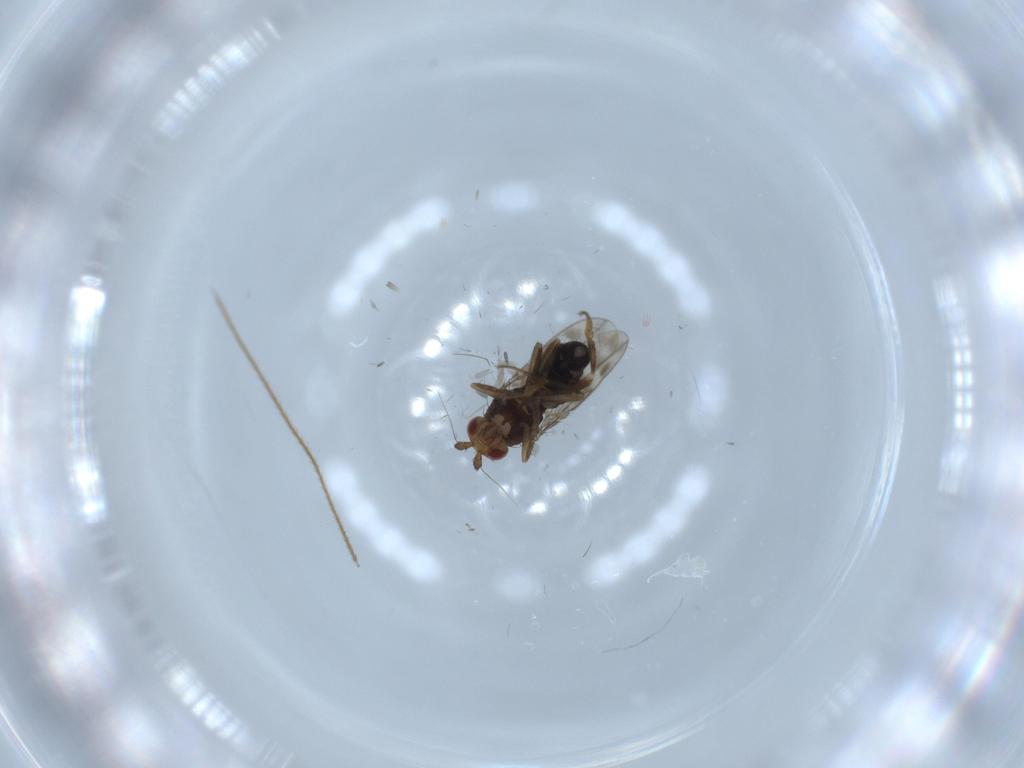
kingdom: Animalia
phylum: Arthropoda
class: Insecta
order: Diptera
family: Sphaeroceridae
